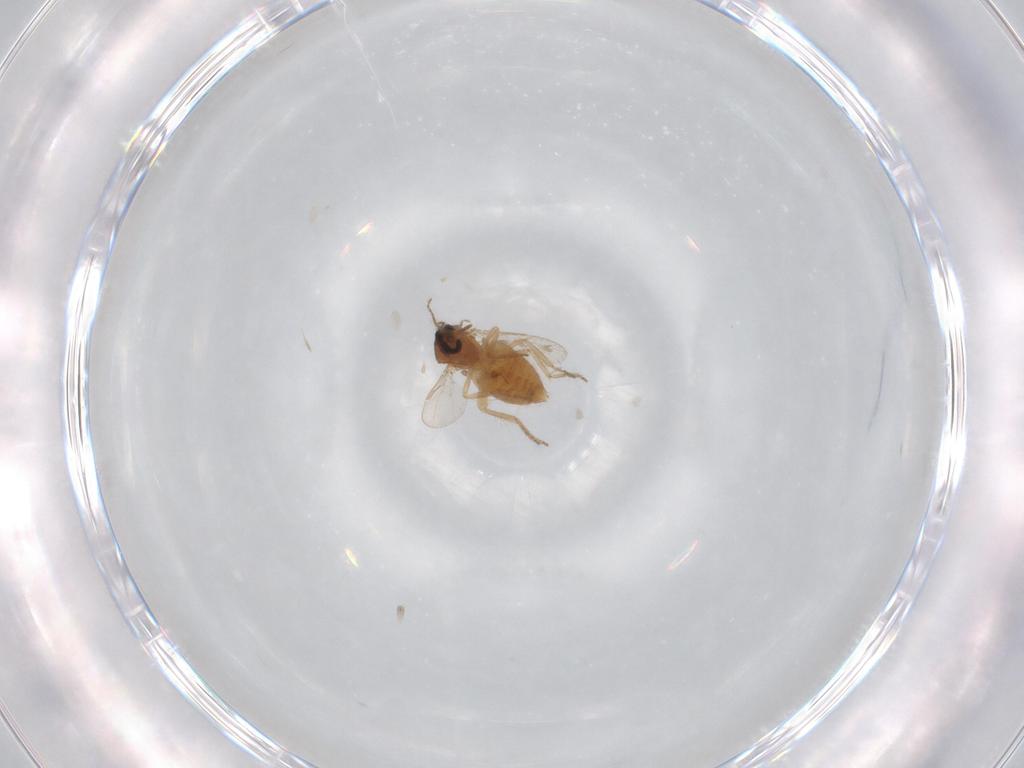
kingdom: Animalia
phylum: Arthropoda
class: Insecta
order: Diptera
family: Ceratopogonidae
